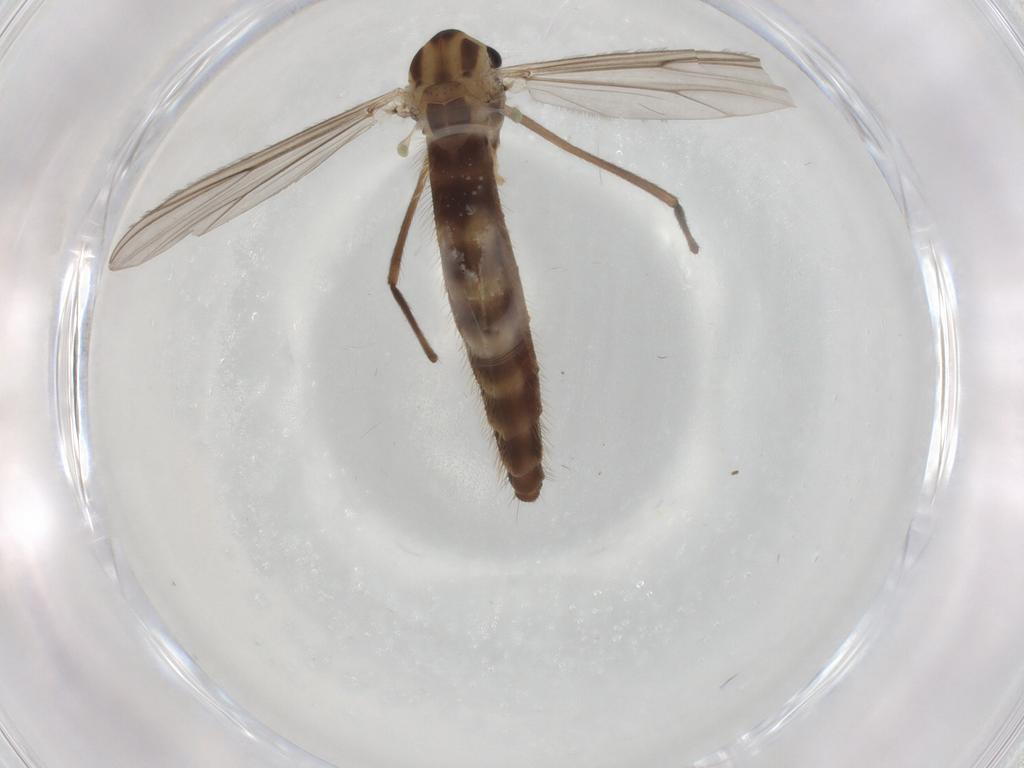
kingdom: Animalia
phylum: Arthropoda
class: Insecta
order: Diptera
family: Chironomidae
